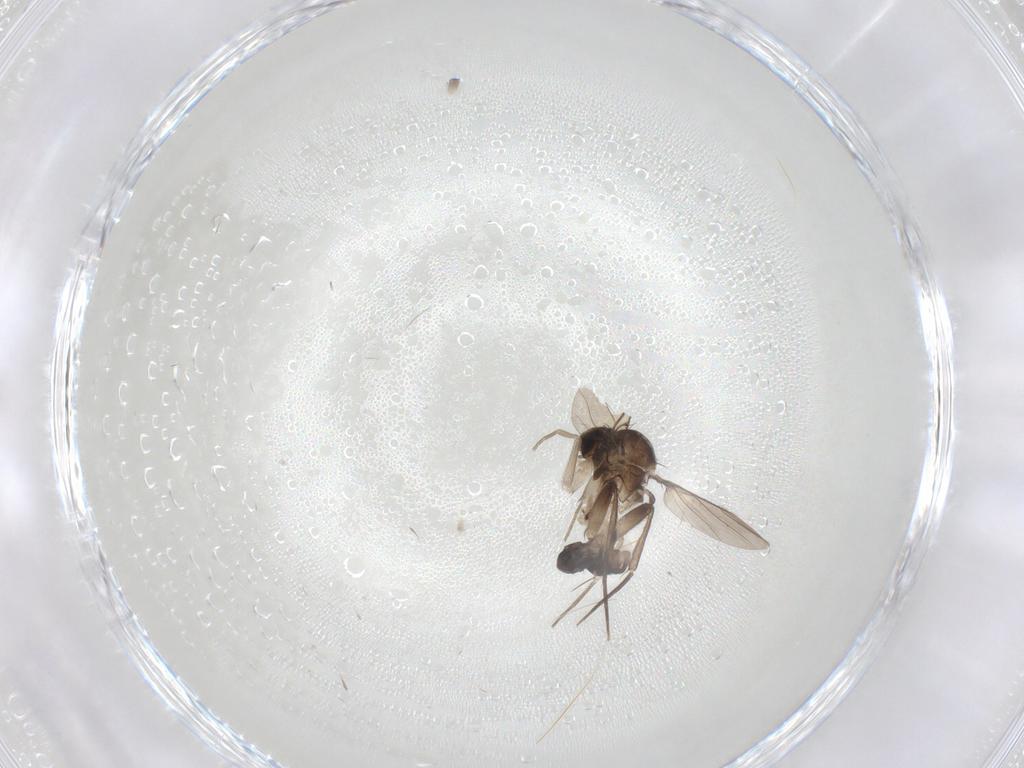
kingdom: Animalia
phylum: Arthropoda
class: Insecta
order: Diptera
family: Phoridae
